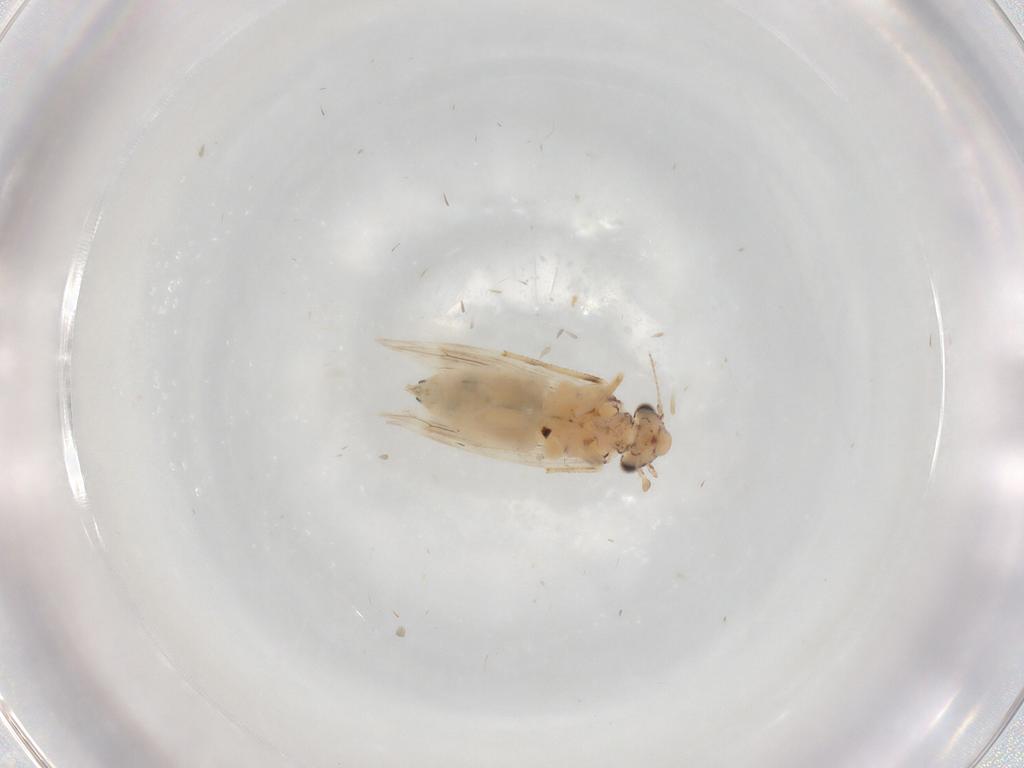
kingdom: Animalia
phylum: Arthropoda
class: Insecta
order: Psocodea
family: Lepidopsocidae
